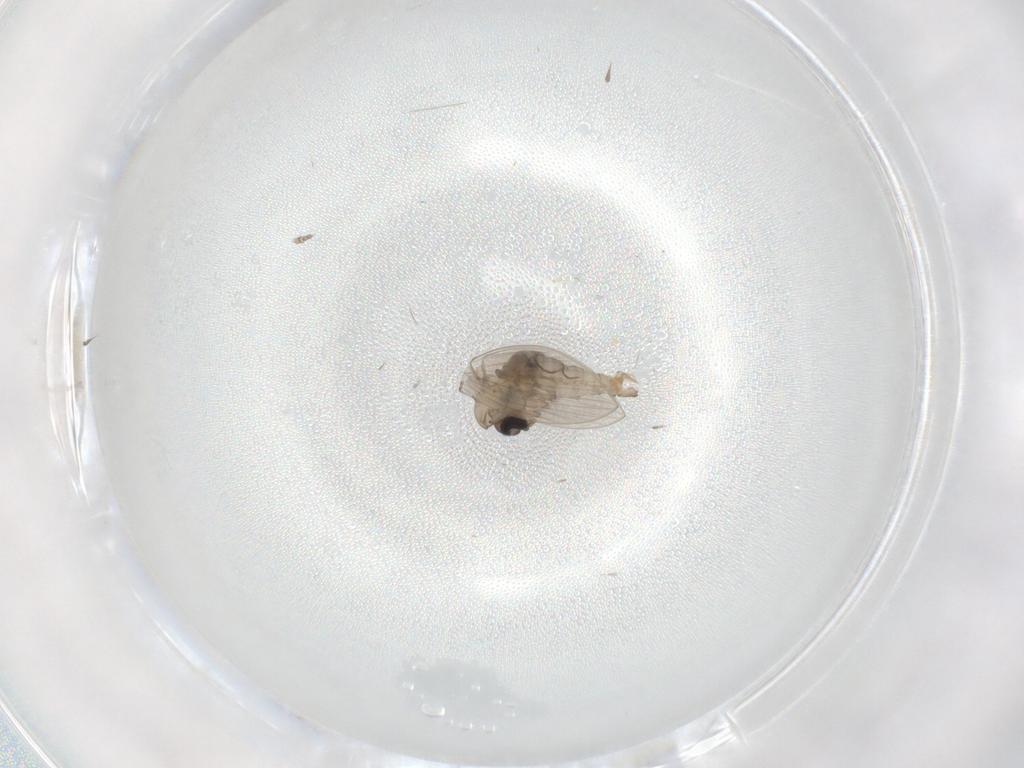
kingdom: Animalia
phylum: Arthropoda
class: Insecta
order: Diptera
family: Psychodidae
